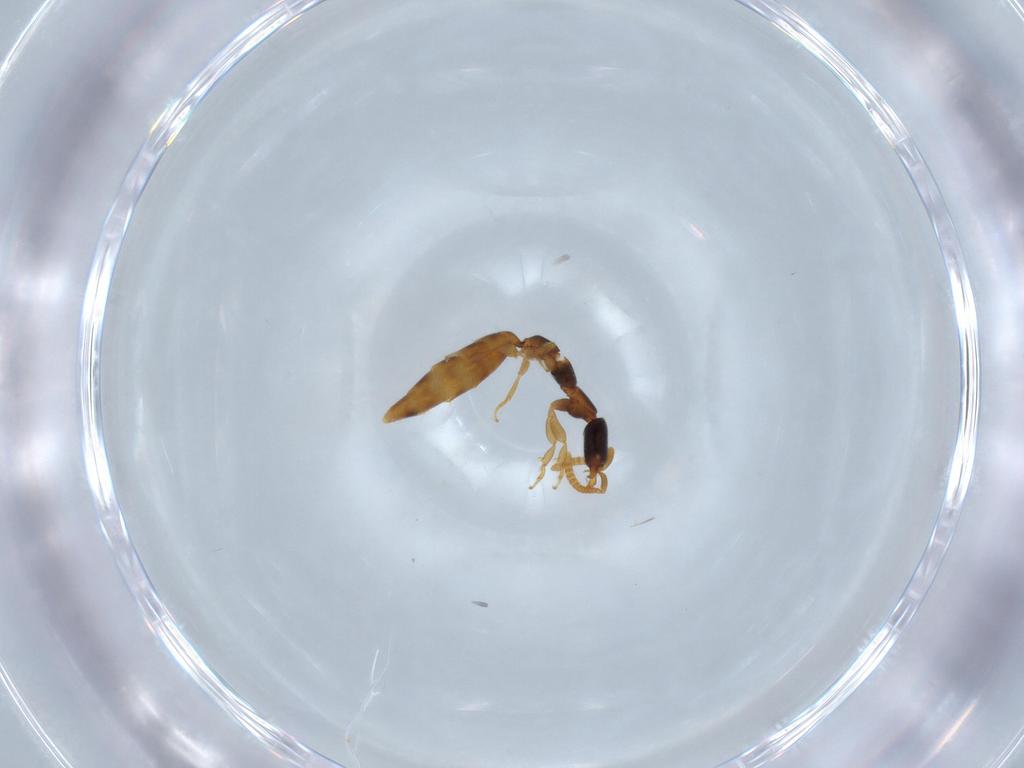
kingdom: Animalia
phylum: Arthropoda
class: Insecta
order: Hymenoptera
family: Bethylidae
